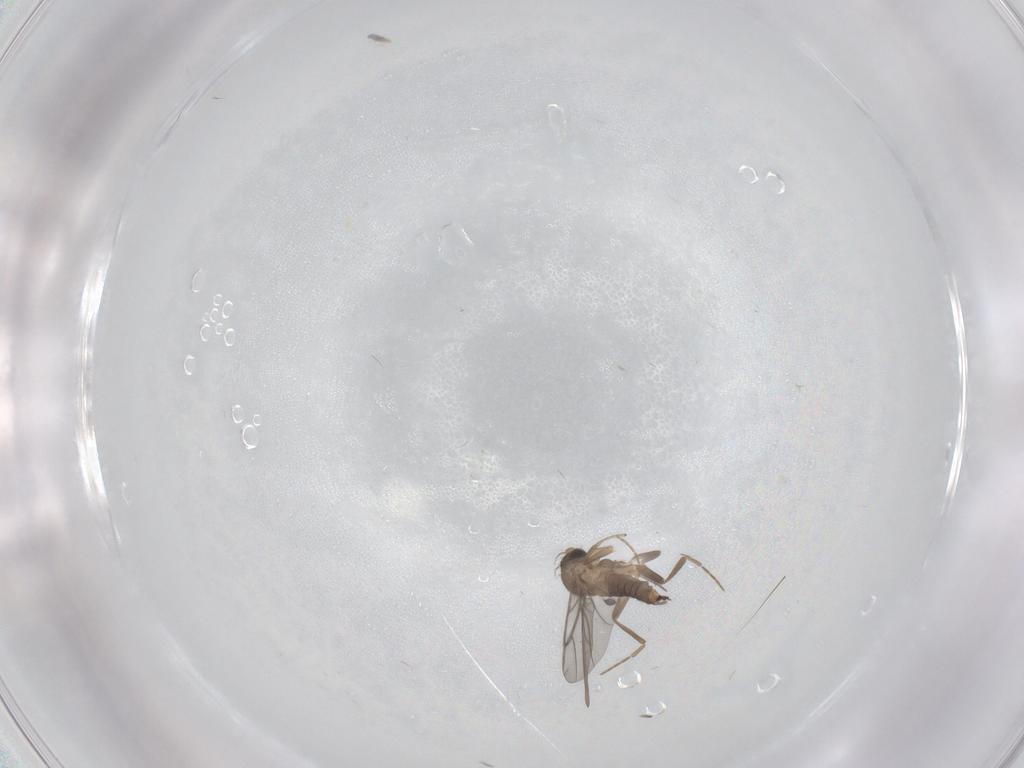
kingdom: Animalia
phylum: Arthropoda
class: Insecta
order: Diptera
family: Cecidomyiidae
